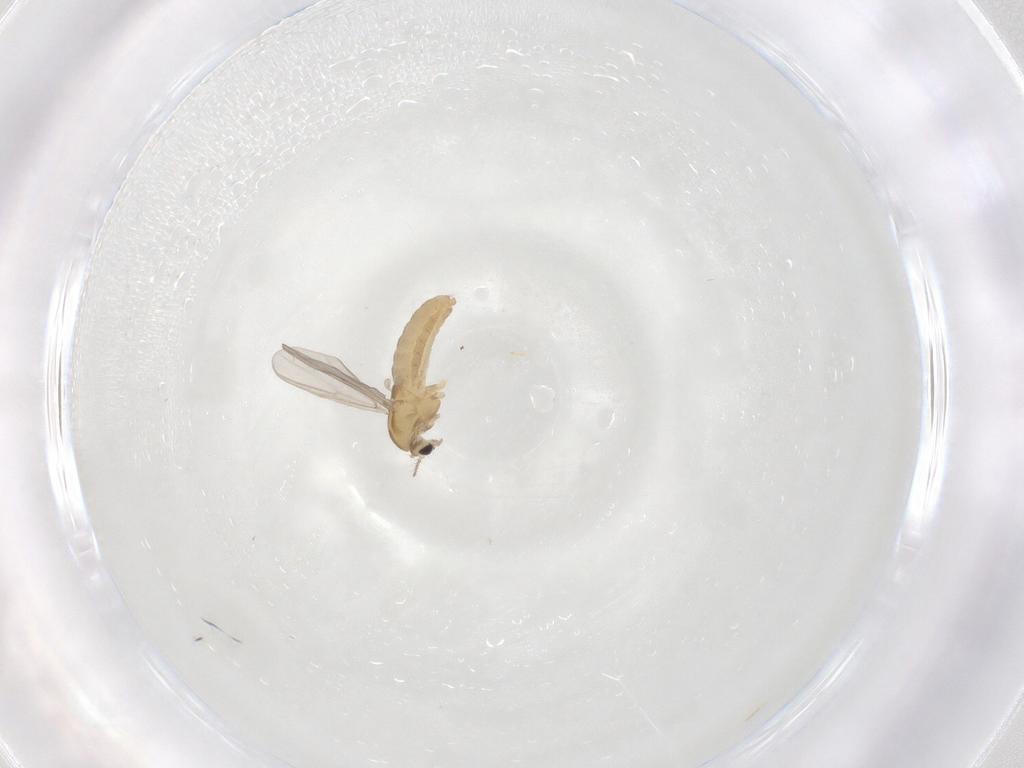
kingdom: Animalia
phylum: Arthropoda
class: Insecta
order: Diptera
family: Chironomidae
